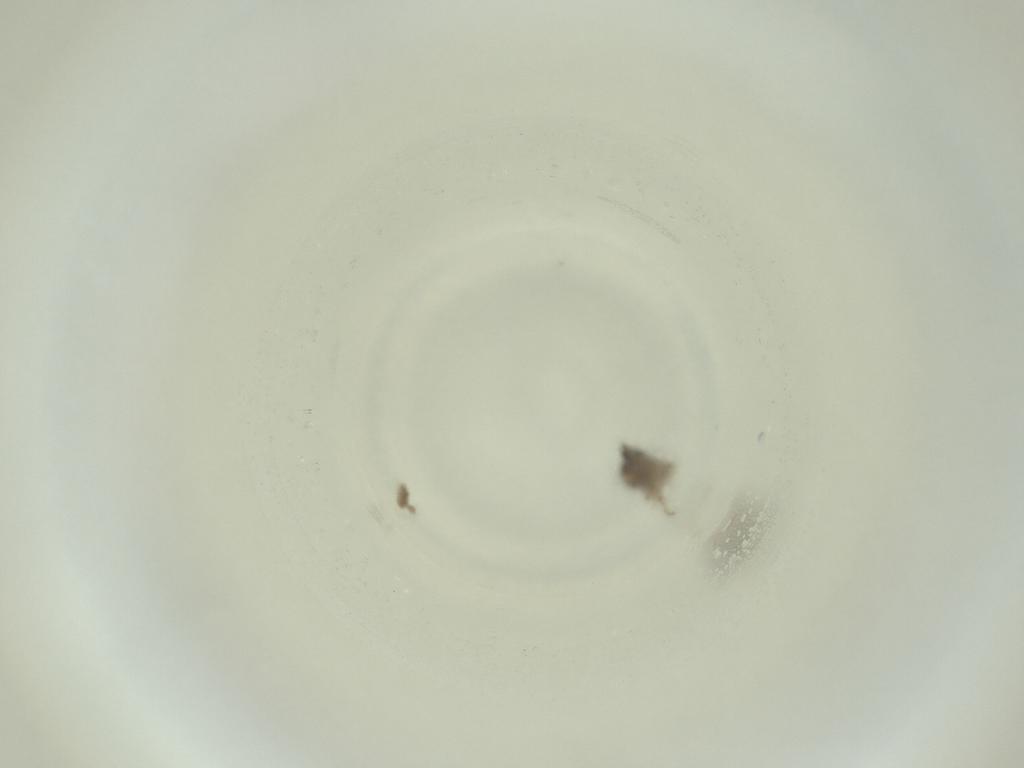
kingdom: Animalia
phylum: Arthropoda
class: Insecta
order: Diptera
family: Cecidomyiidae
